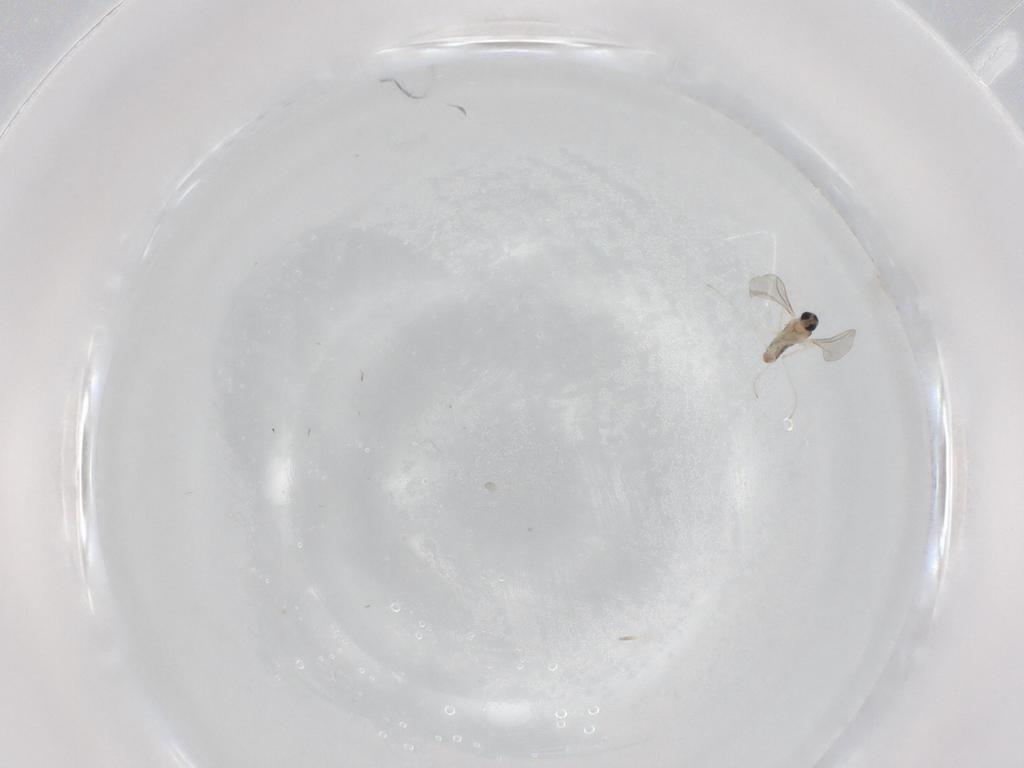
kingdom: Animalia
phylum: Arthropoda
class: Insecta
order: Diptera
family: Cecidomyiidae
